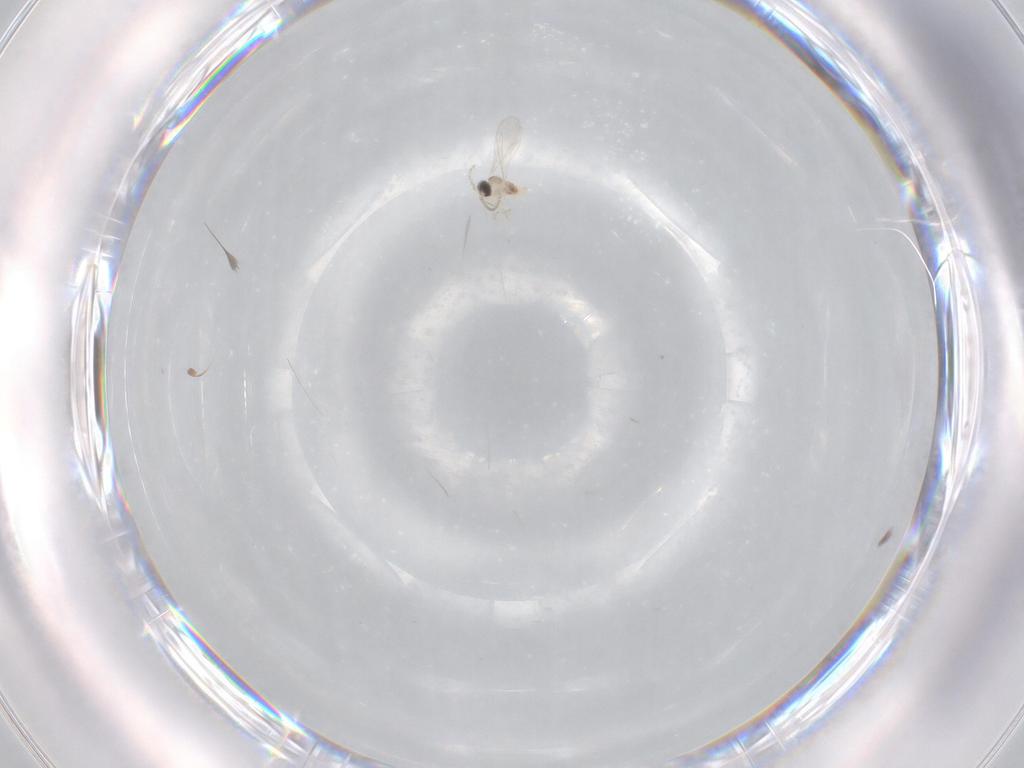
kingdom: Animalia
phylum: Arthropoda
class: Insecta
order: Diptera
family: Cecidomyiidae
